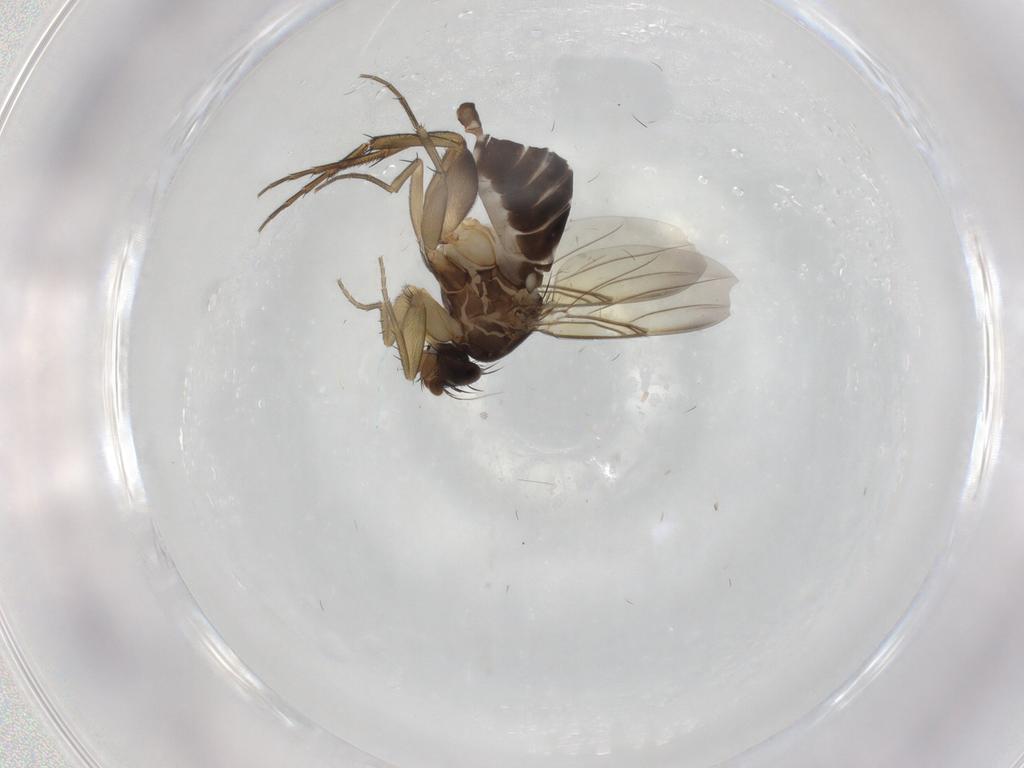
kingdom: Animalia
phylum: Arthropoda
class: Insecta
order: Diptera
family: Phoridae
